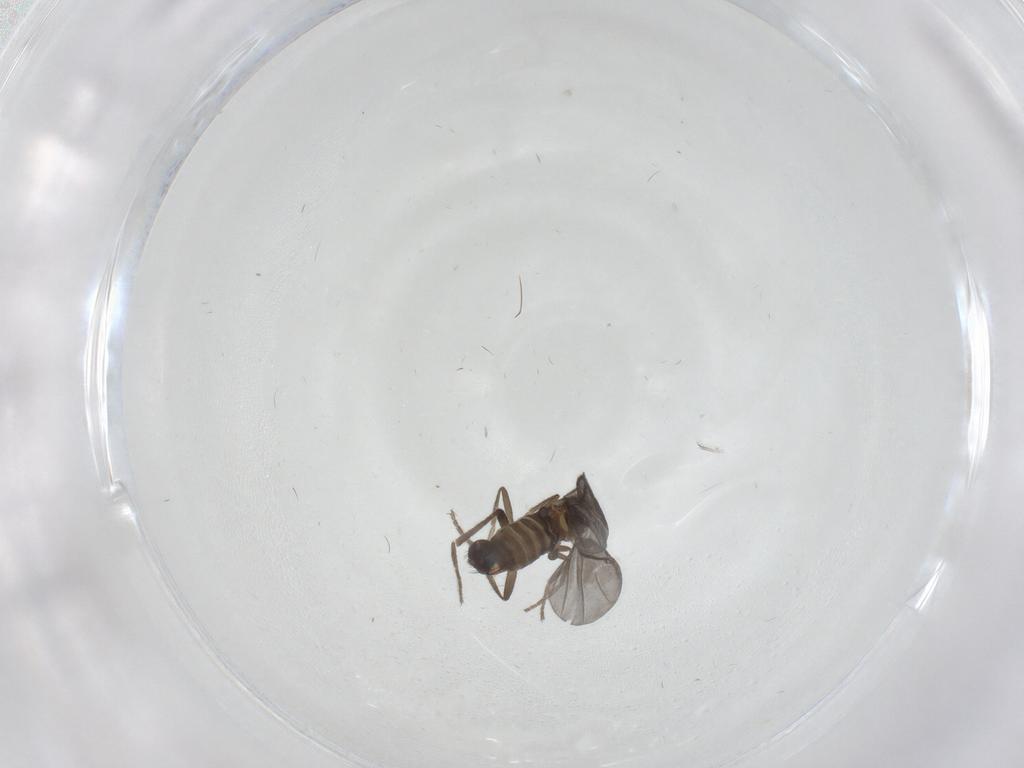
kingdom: Animalia
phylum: Arthropoda
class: Insecta
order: Diptera
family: Phoridae
